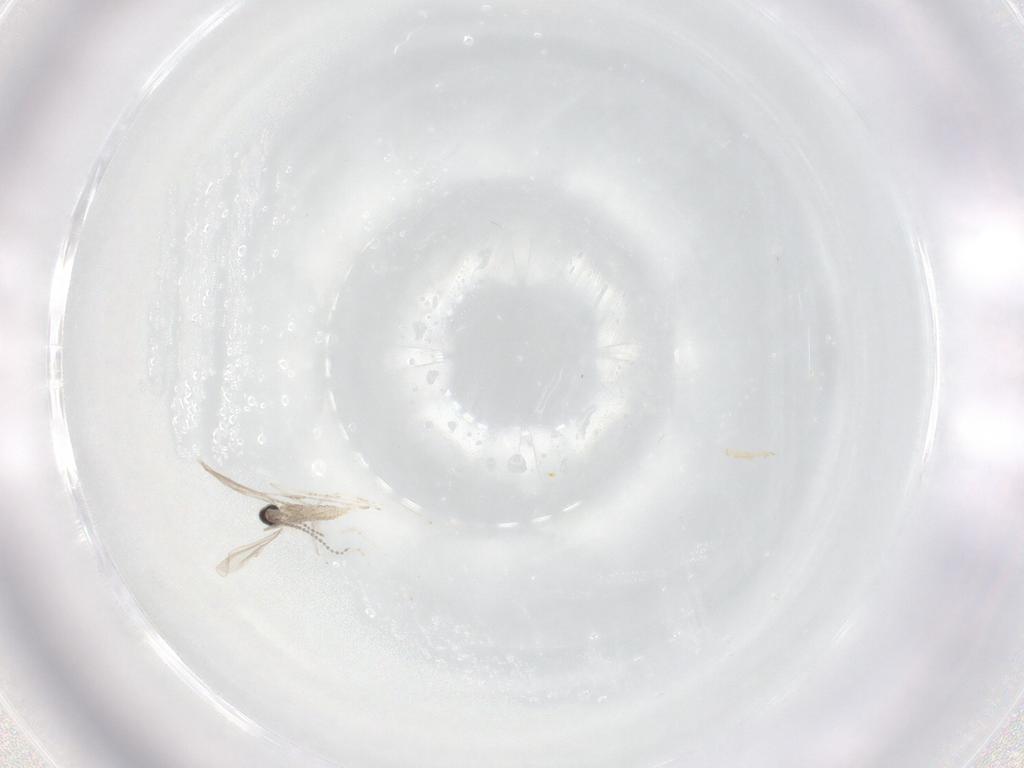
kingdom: Animalia
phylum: Arthropoda
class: Insecta
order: Diptera
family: Cecidomyiidae
